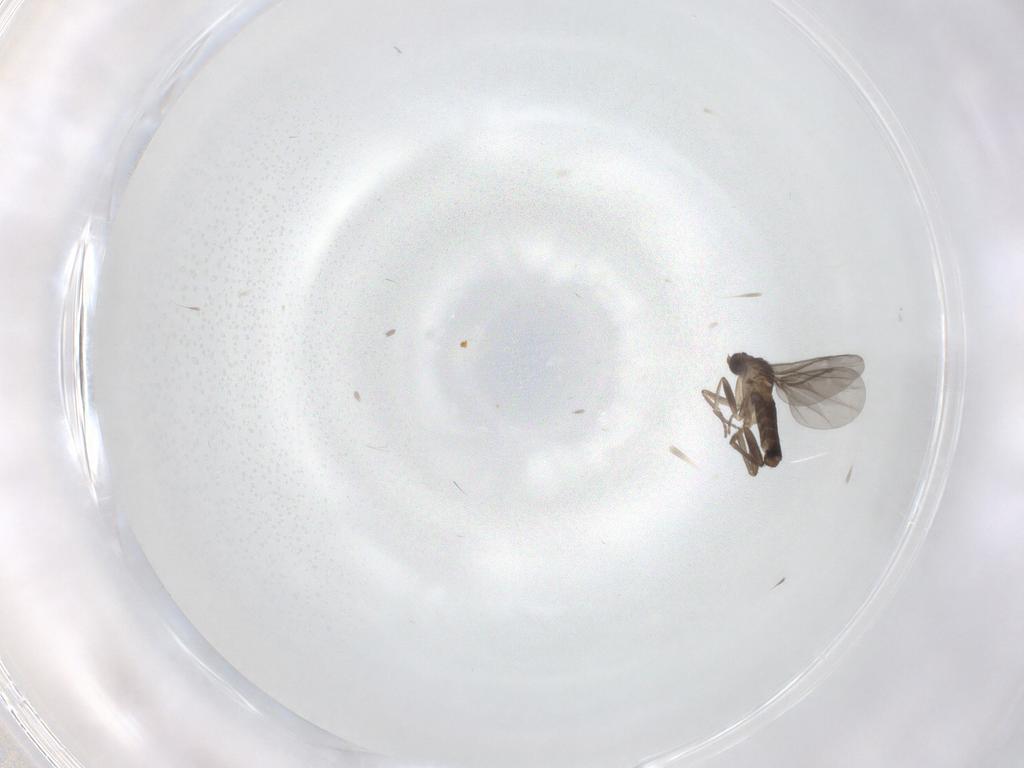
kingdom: Animalia
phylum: Arthropoda
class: Insecta
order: Diptera
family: Phoridae
